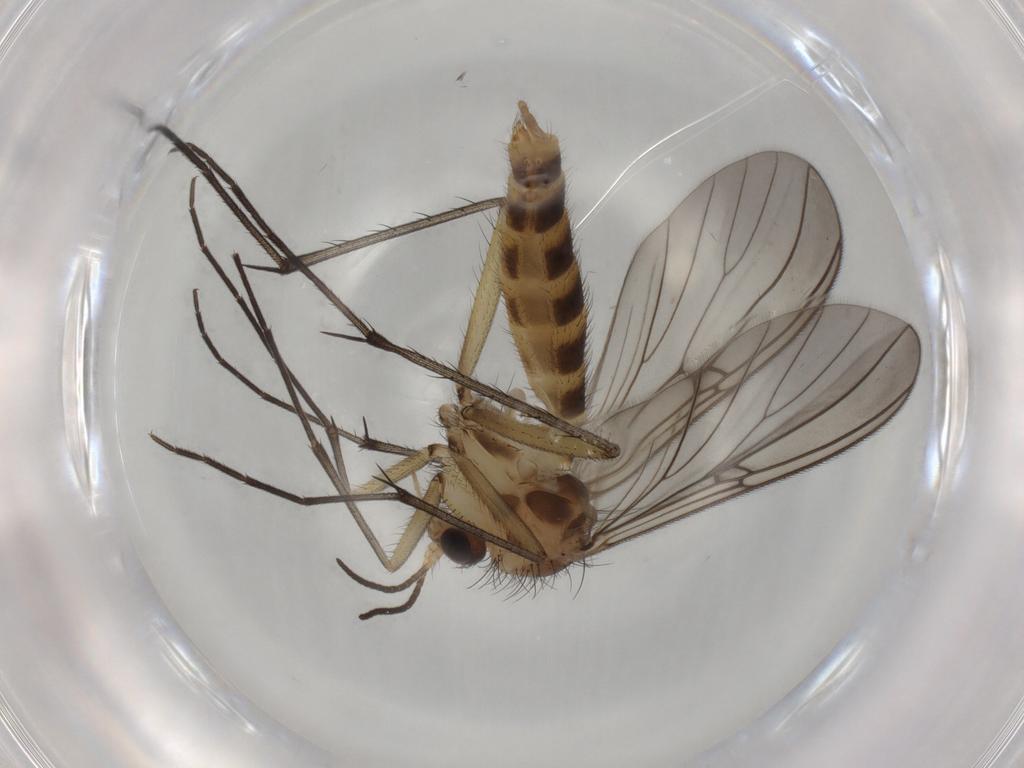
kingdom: Animalia
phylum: Arthropoda
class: Insecta
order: Diptera
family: Mycetophilidae
